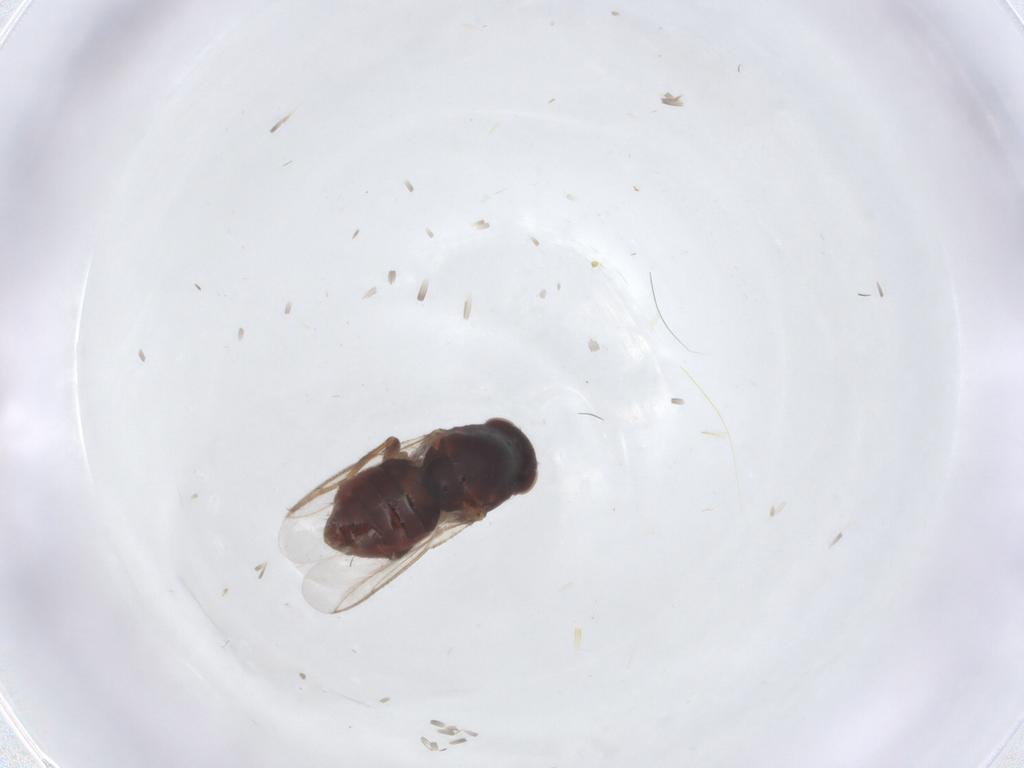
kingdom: Animalia
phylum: Arthropoda
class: Insecta
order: Diptera
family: Sphaeroceridae
